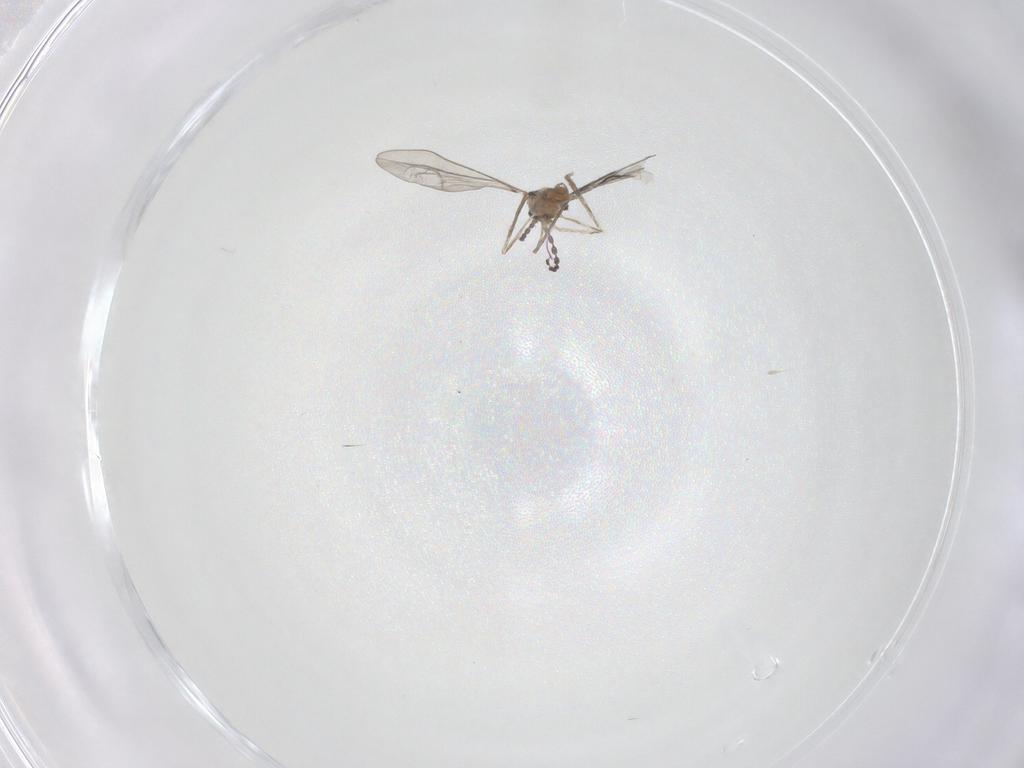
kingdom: Animalia
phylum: Arthropoda
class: Insecta
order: Diptera
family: Cecidomyiidae
